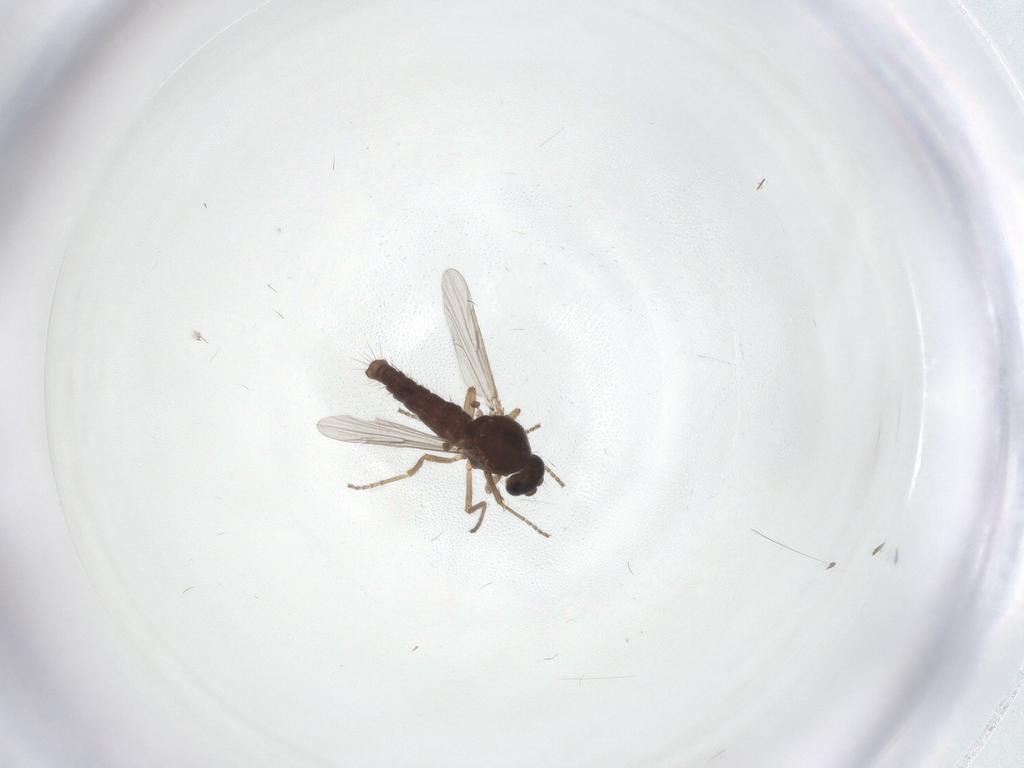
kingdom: Animalia
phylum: Arthropoda
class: Insecta
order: Diptera
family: Ceratopogonidae
